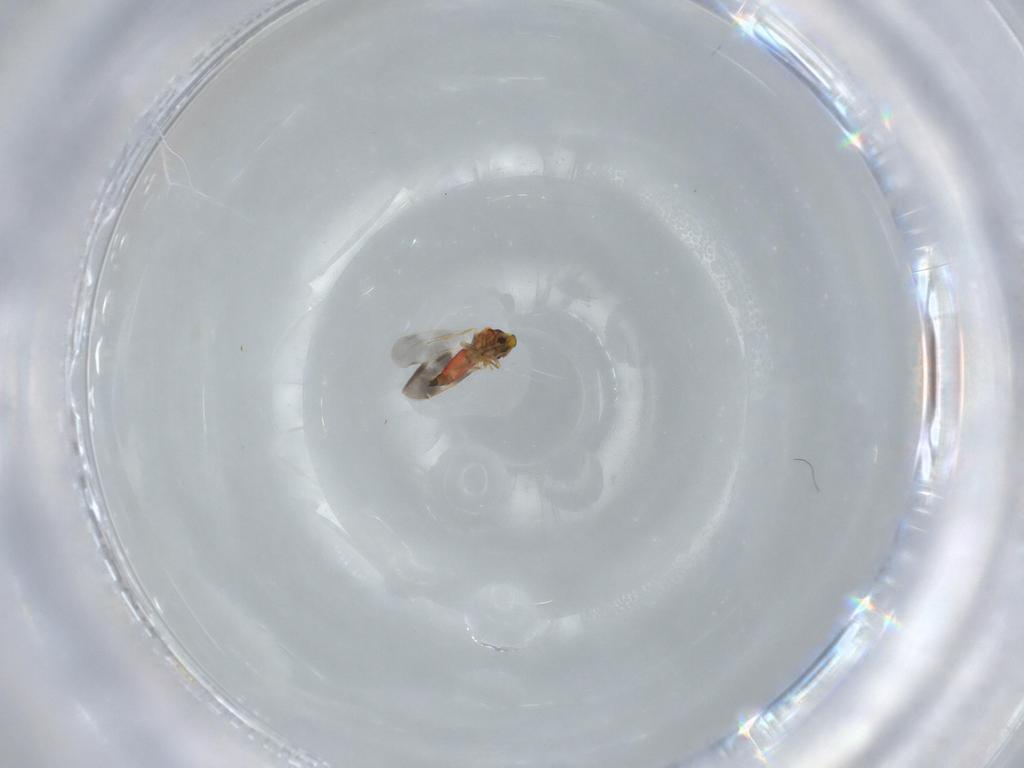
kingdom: Animalia
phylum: Arthropoda
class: Insecta
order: Hemiptera
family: Aleyrodidae
